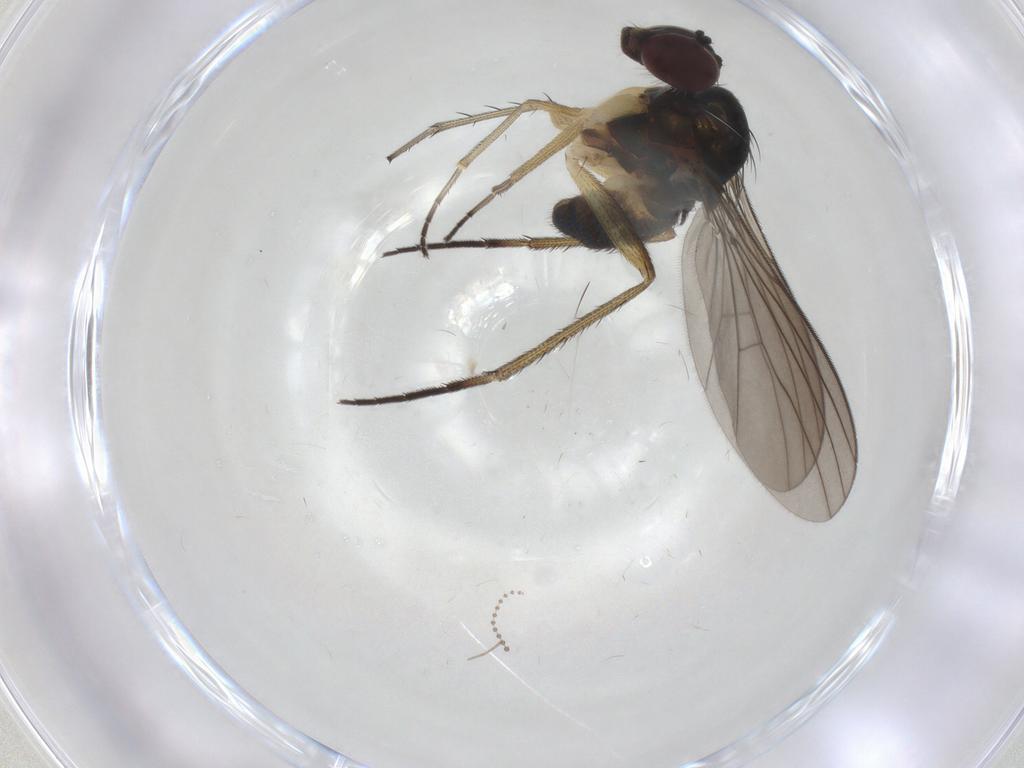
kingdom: Animalia
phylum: Arthropoda
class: Insecta
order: Diptera
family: Dolichopodidae
